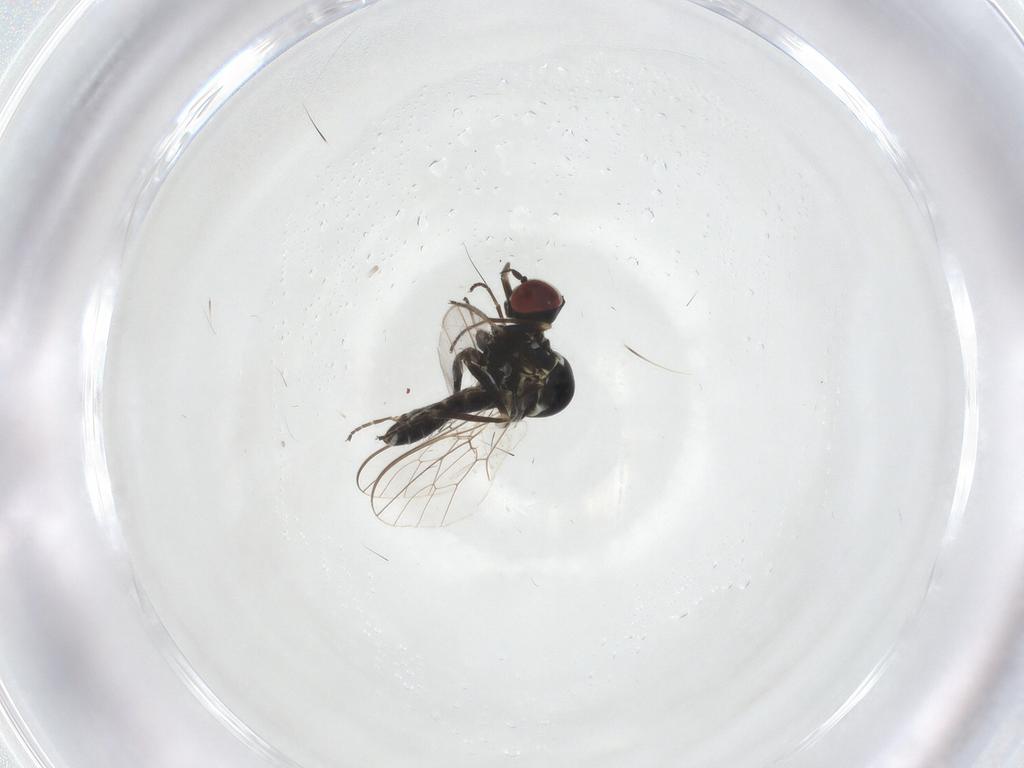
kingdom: Animalia
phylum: Arthropoda
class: Insecta
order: Diptera
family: Bombyliidae
